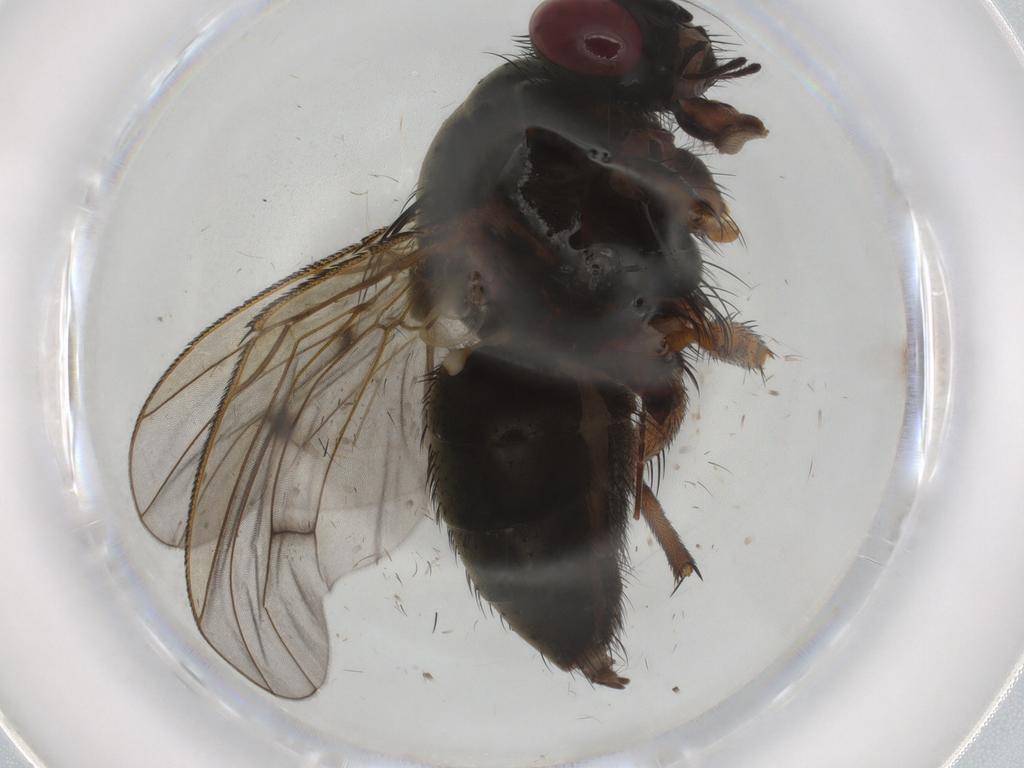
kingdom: Animalia
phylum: Arthropoda
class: Insecta
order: Diptera
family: Muscidae
